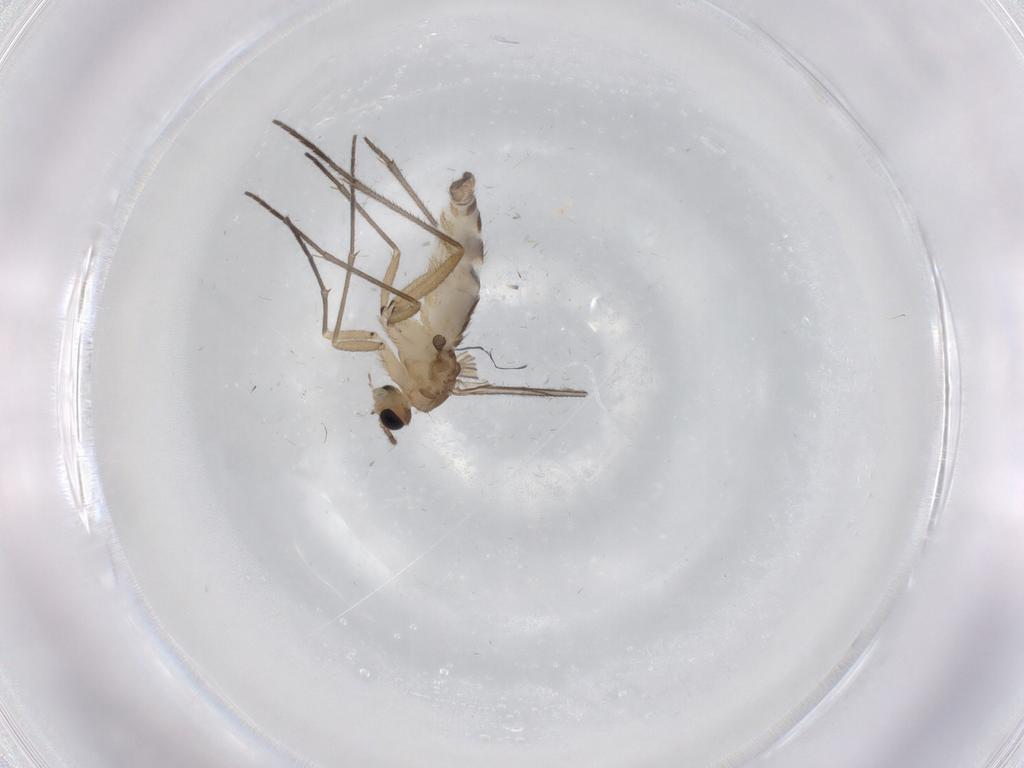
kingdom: Animalia
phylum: Arthropoda
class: Insecta
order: Diptera
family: Sciaridae
